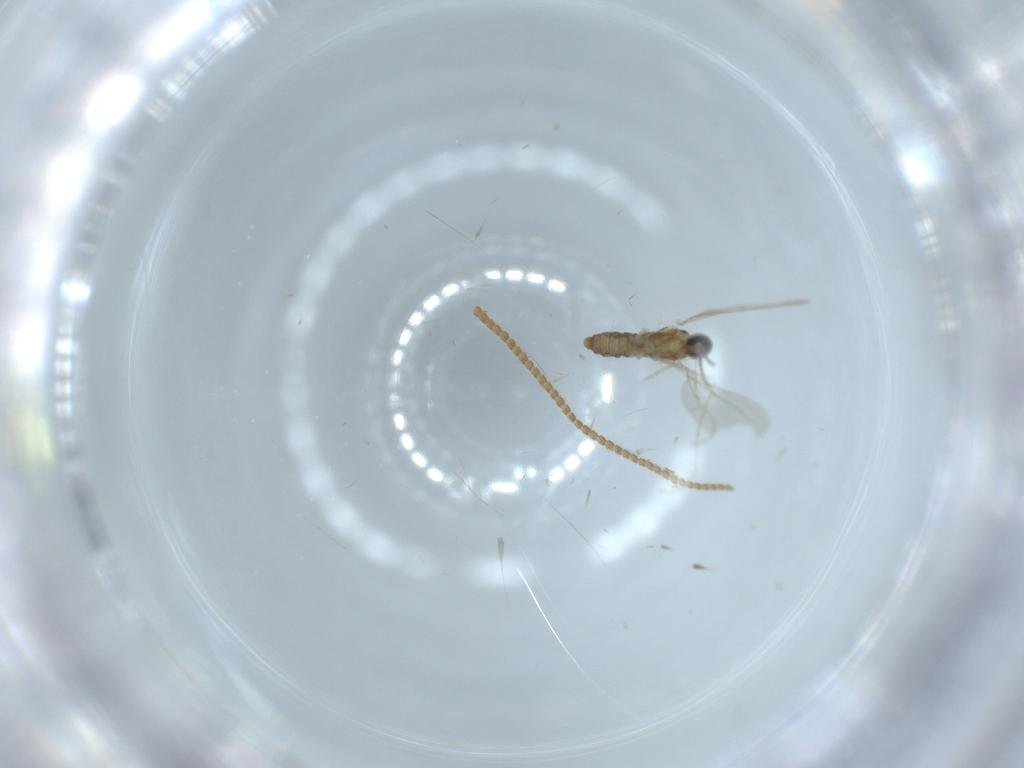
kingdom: Animalia
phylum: Arthropoda
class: Insecta
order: Diptera
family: Cecidomyiidae
